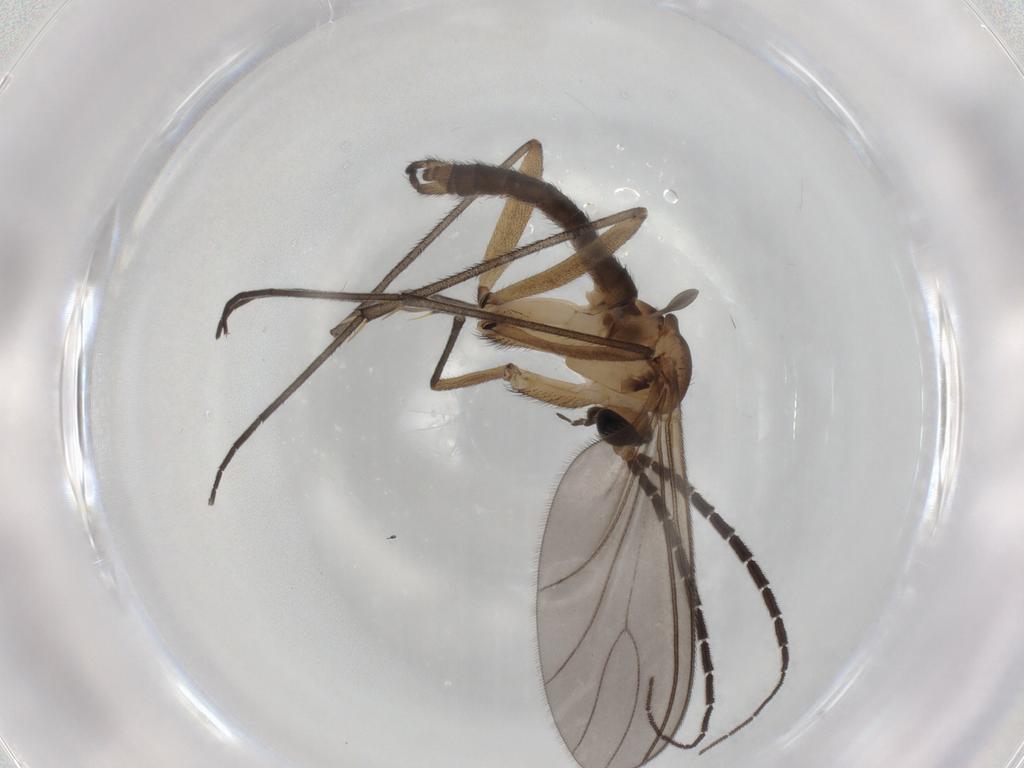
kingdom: Animalia
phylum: Arthropoda
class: Insecta
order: Diptera
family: Sciaridae
